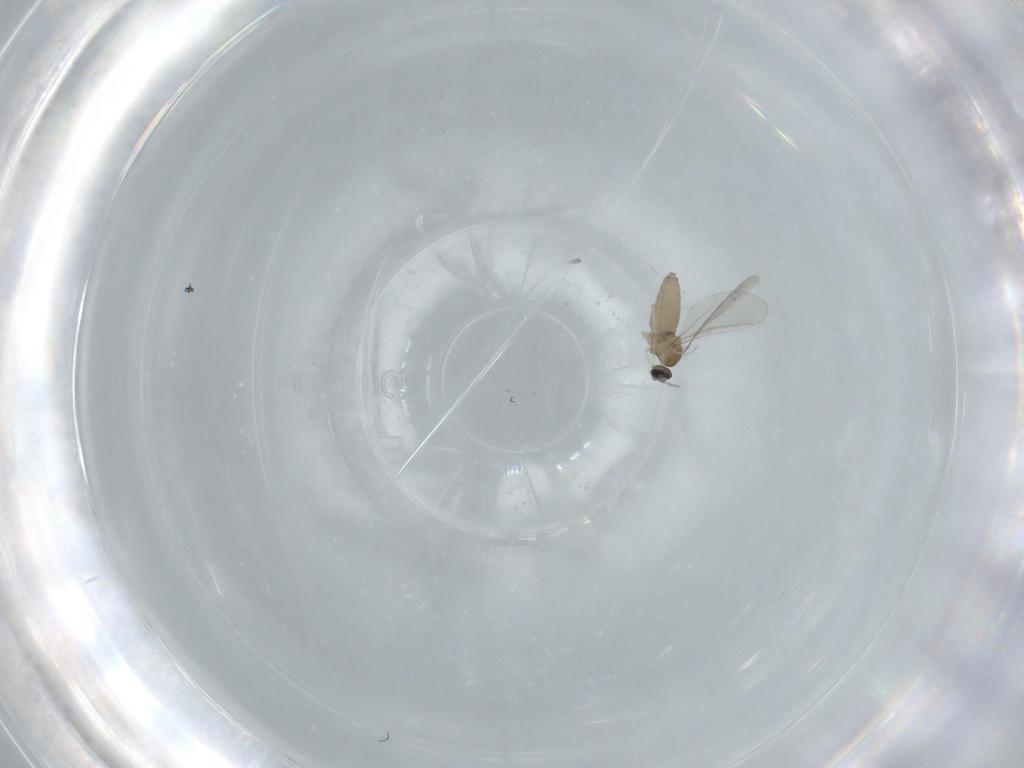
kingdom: Animalia
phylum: Arthropoda
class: Insecta
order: Diptera
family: Cecidomyiidae
